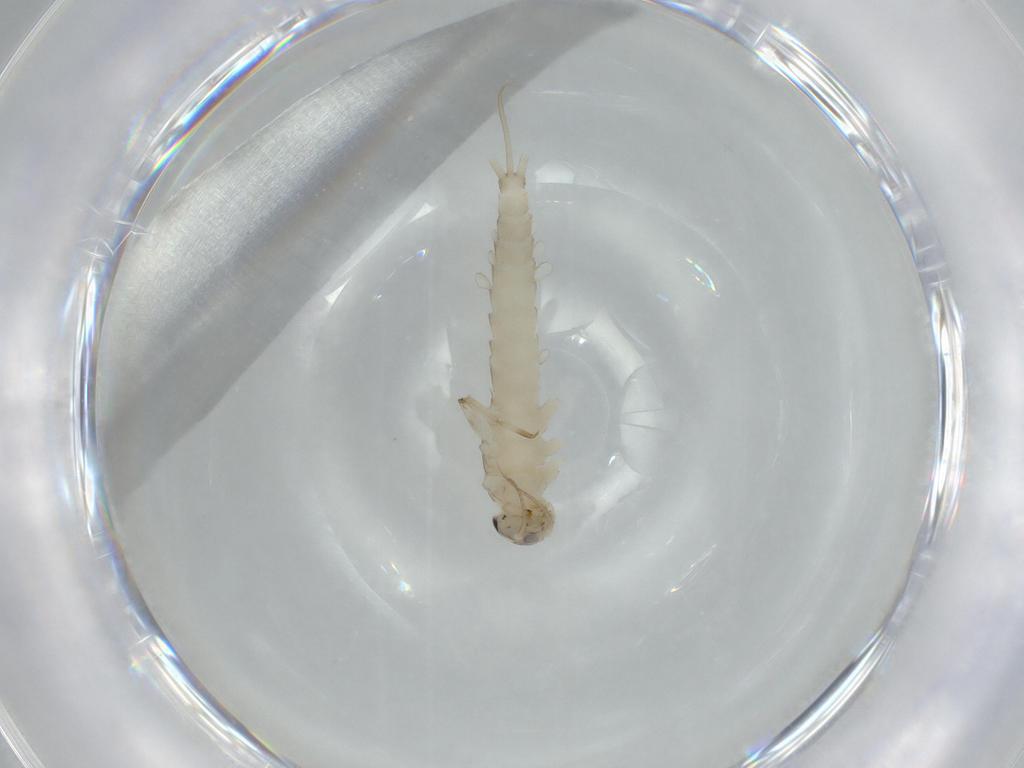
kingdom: Animalia
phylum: Arthropoda
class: Insecta
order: Ephemeroptera
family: Baetidae
